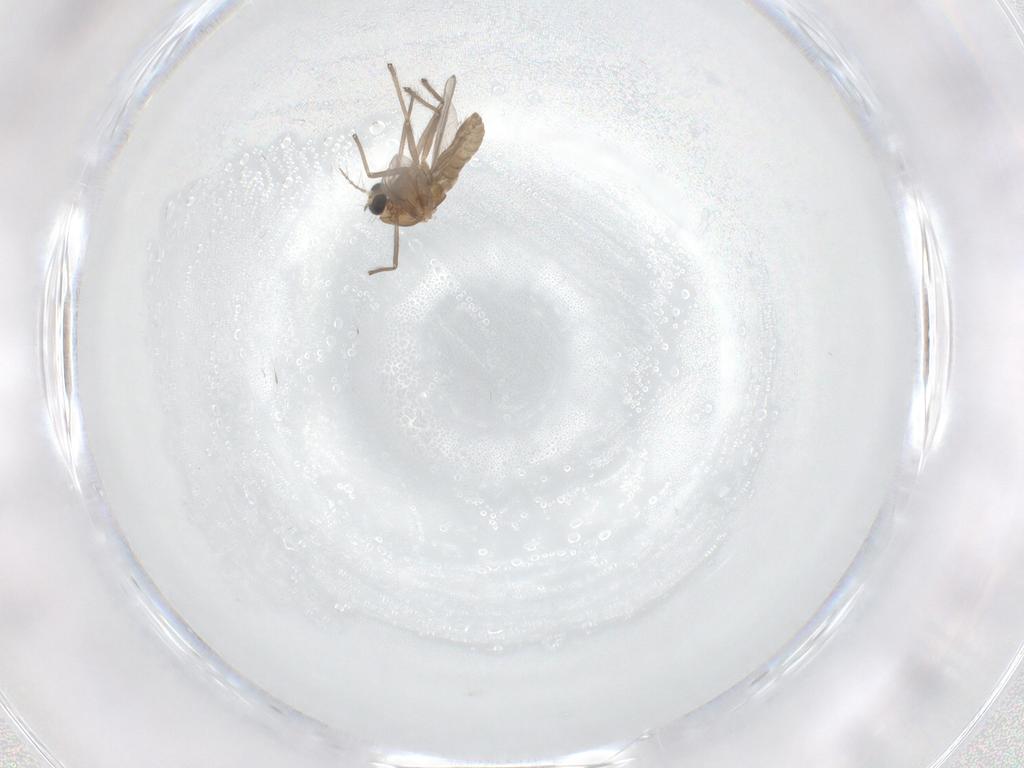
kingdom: Animalia
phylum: Arthropoda
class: Insecta
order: Diptera
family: Chironomidae
